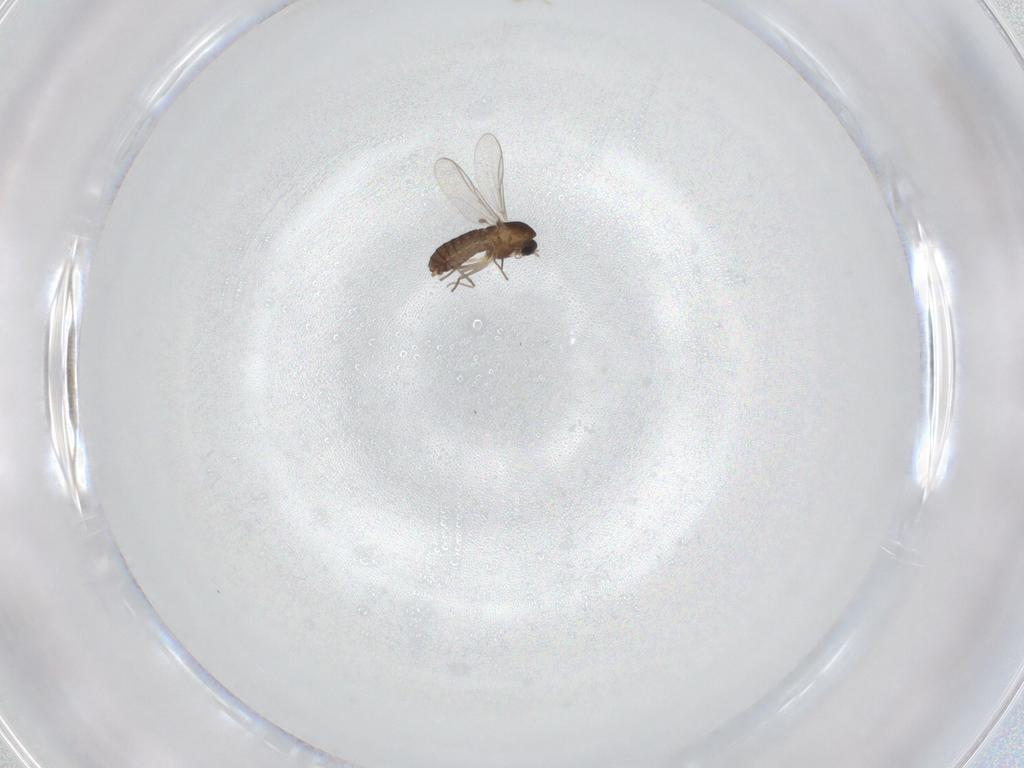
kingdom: Animalia
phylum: Arthropoda
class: Insecta
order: Diptera
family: Chironomidae
